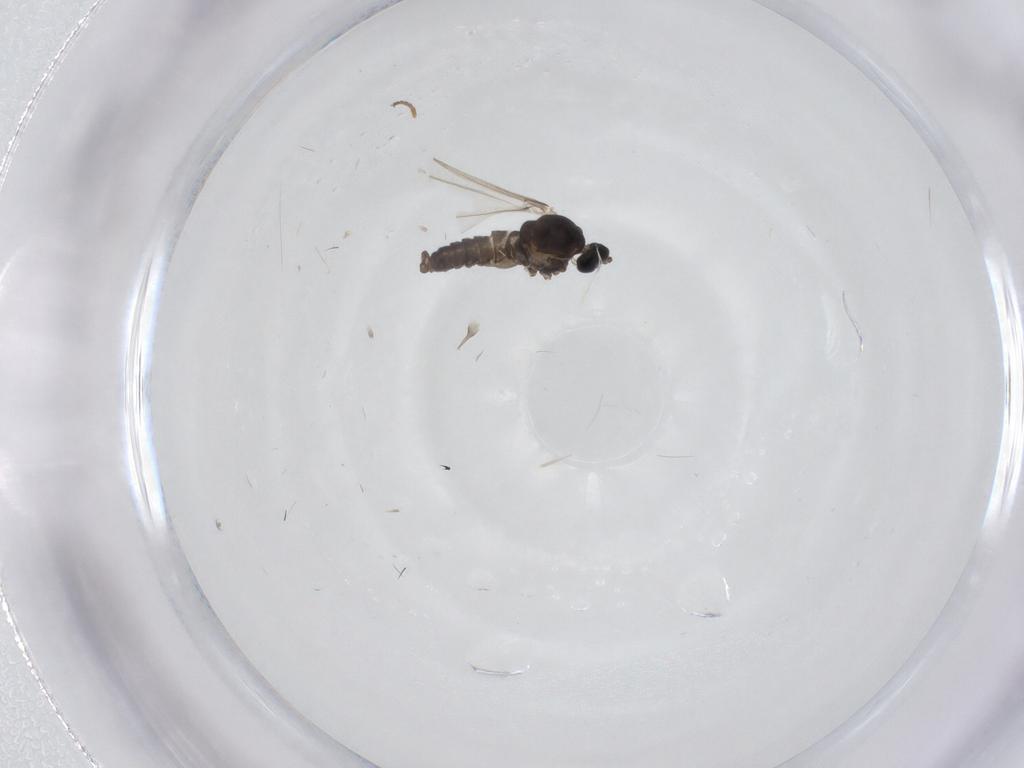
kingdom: Animalia
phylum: Arthropoda
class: Insecta
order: Diptera
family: Cecidomyiidae
